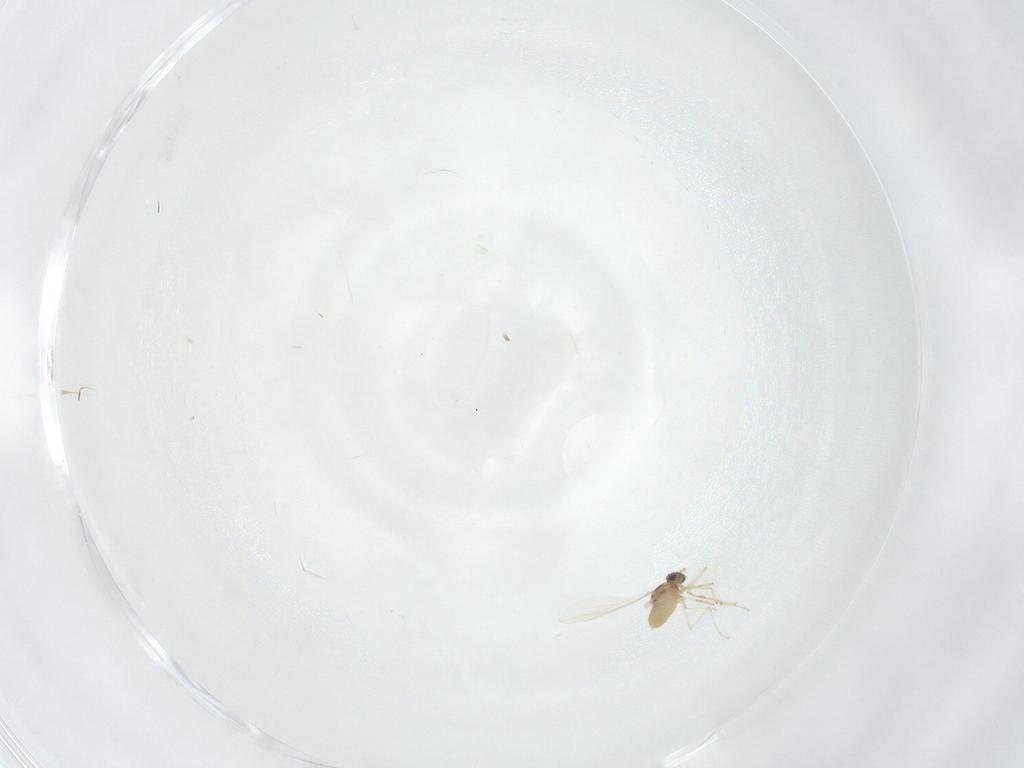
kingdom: Animalia
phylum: Arthropoda
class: Insecta
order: Diptera
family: Cecidomyiidae
